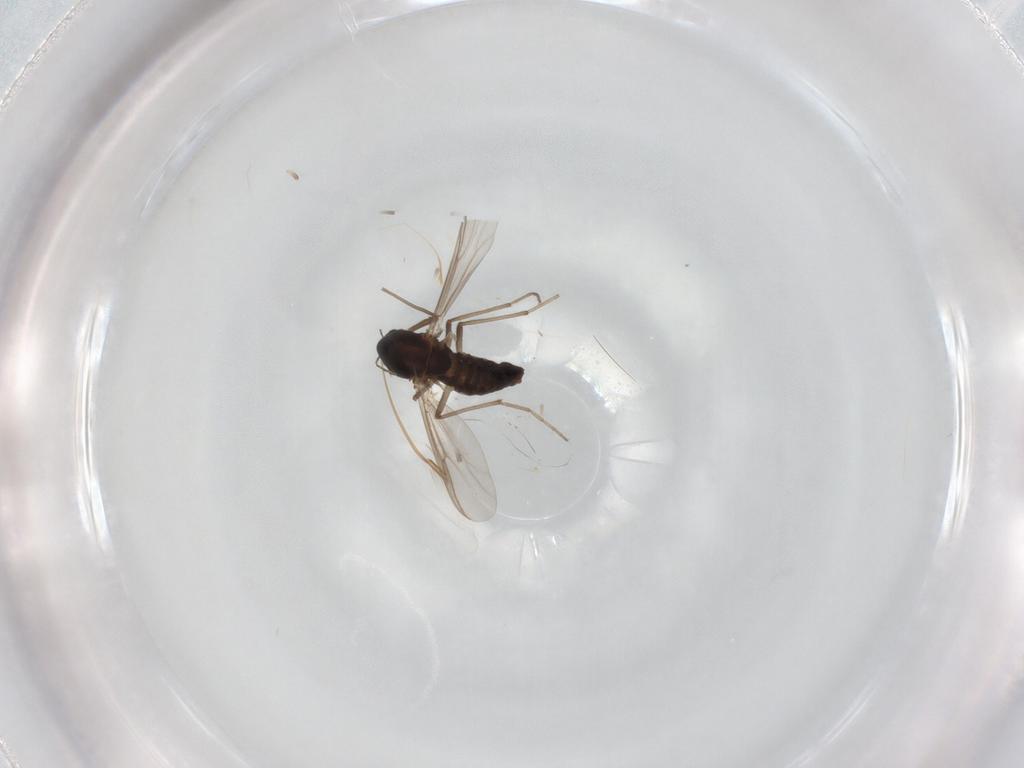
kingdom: Animalia
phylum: Arthropoda
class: Insecta
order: Diptera
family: Chironomidae
